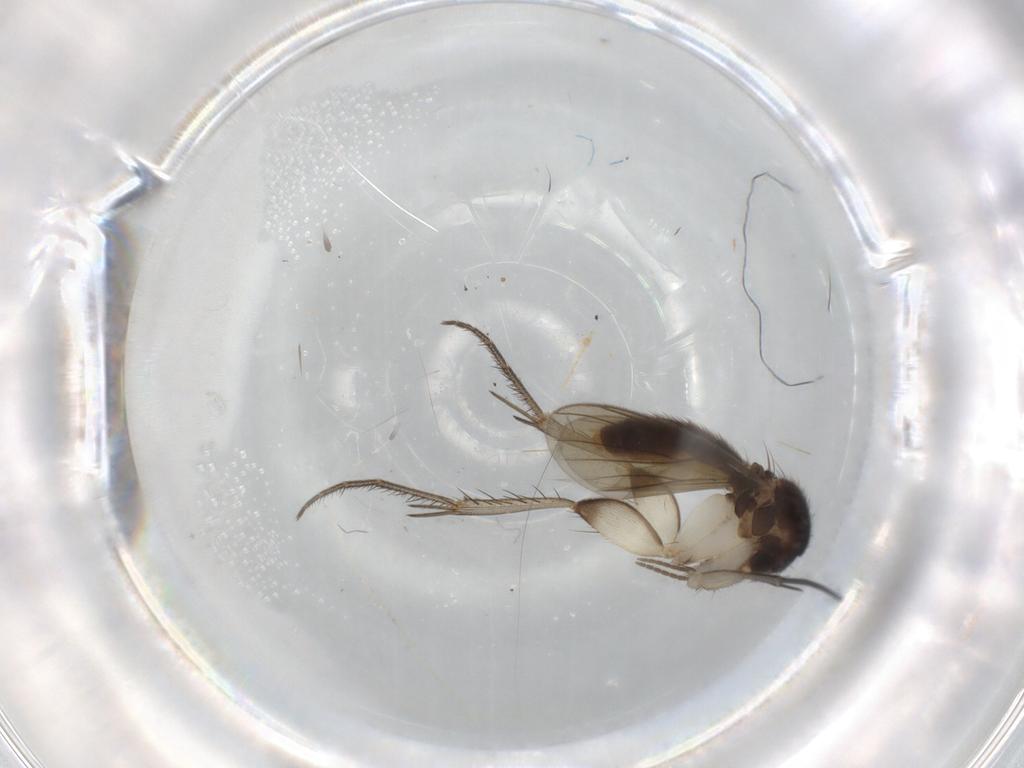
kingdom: Animalia
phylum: Arthropoda
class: Insecta
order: Diptera
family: Mycetophilidae
